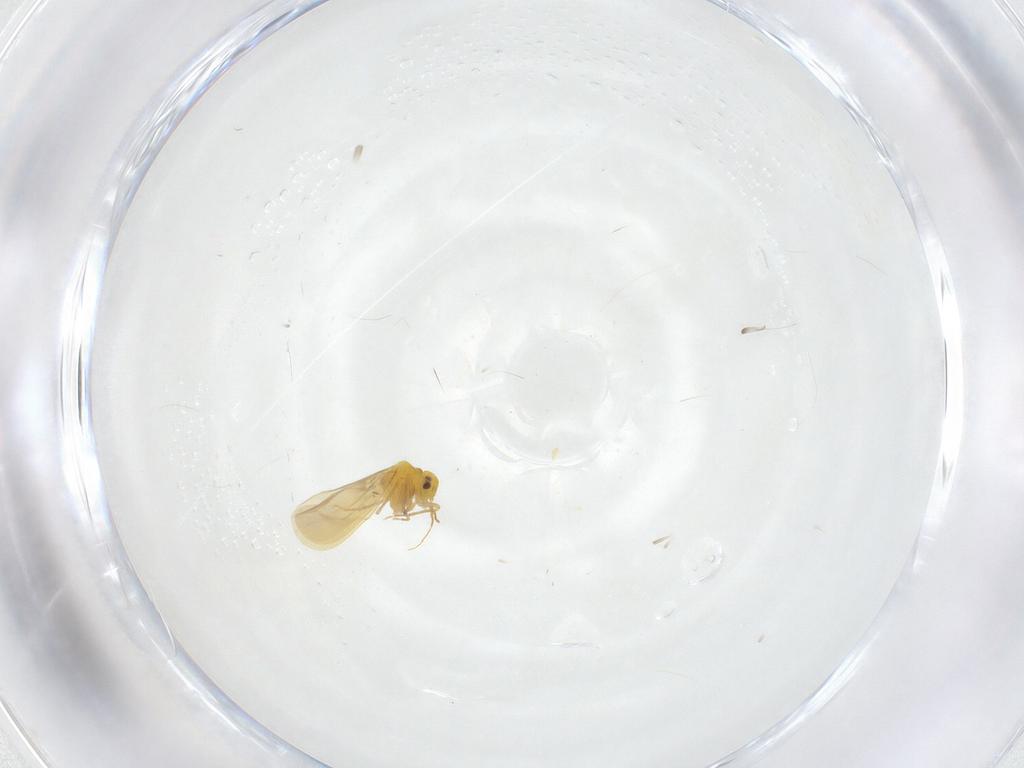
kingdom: Animalia
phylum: Arthropoda
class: Insecta
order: Hemiptera
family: Aleyrodidae
